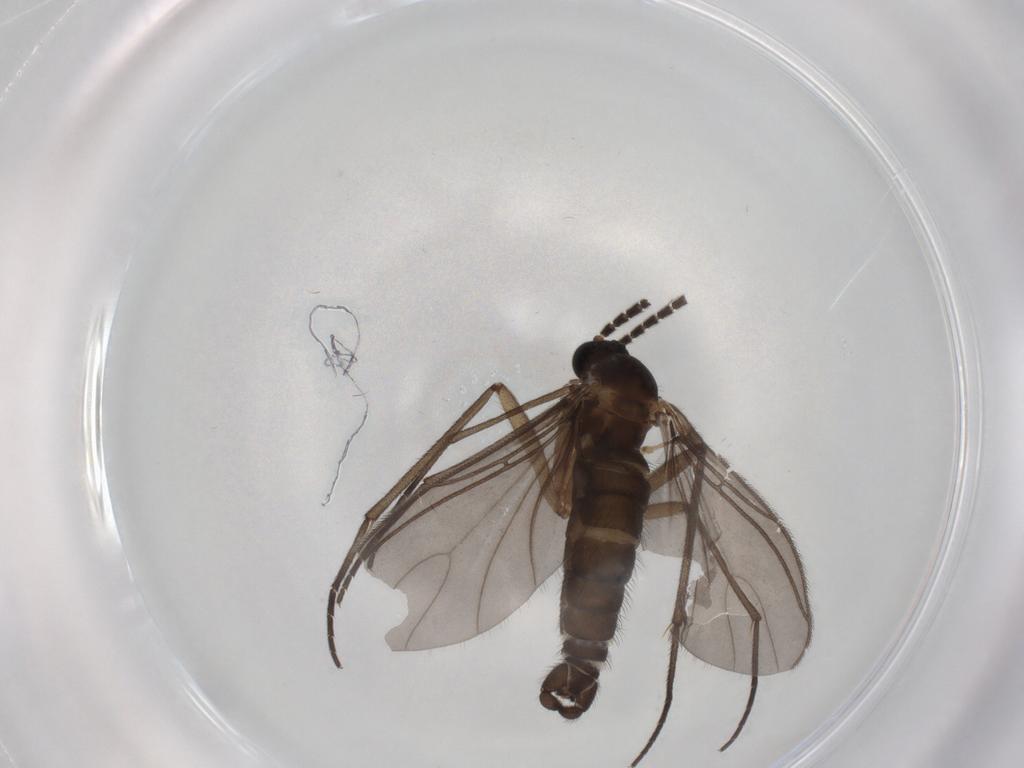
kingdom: Animalia
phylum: Arthropoda
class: Insecta
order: Diptera
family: Sciaridae
